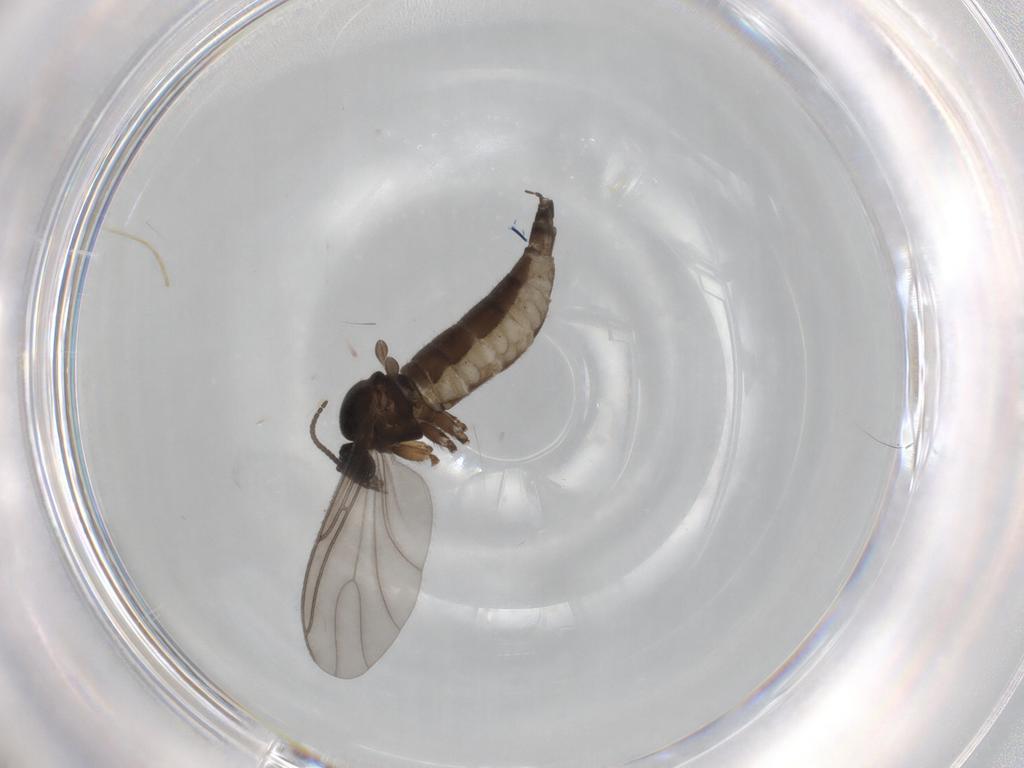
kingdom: Animalia
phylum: Arthropoda
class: Insecta
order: Diptera
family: Sciaridae
